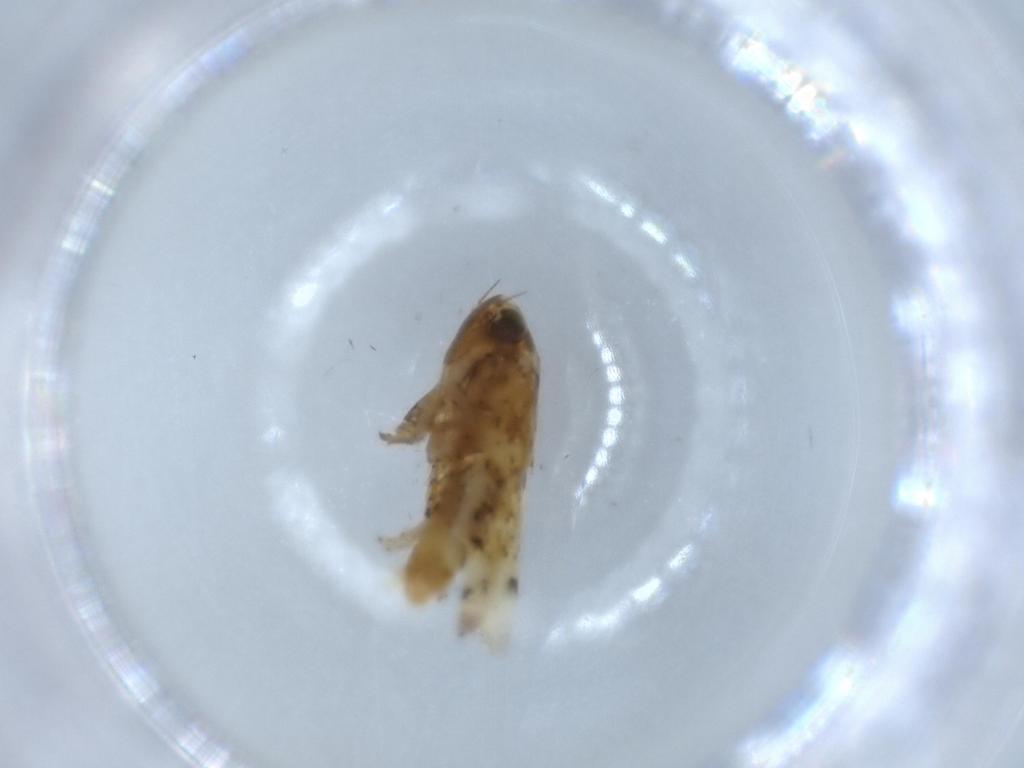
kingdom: Animalia
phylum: Arthropoda
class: Insecta
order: Hemiptera
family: Cicadellidae
